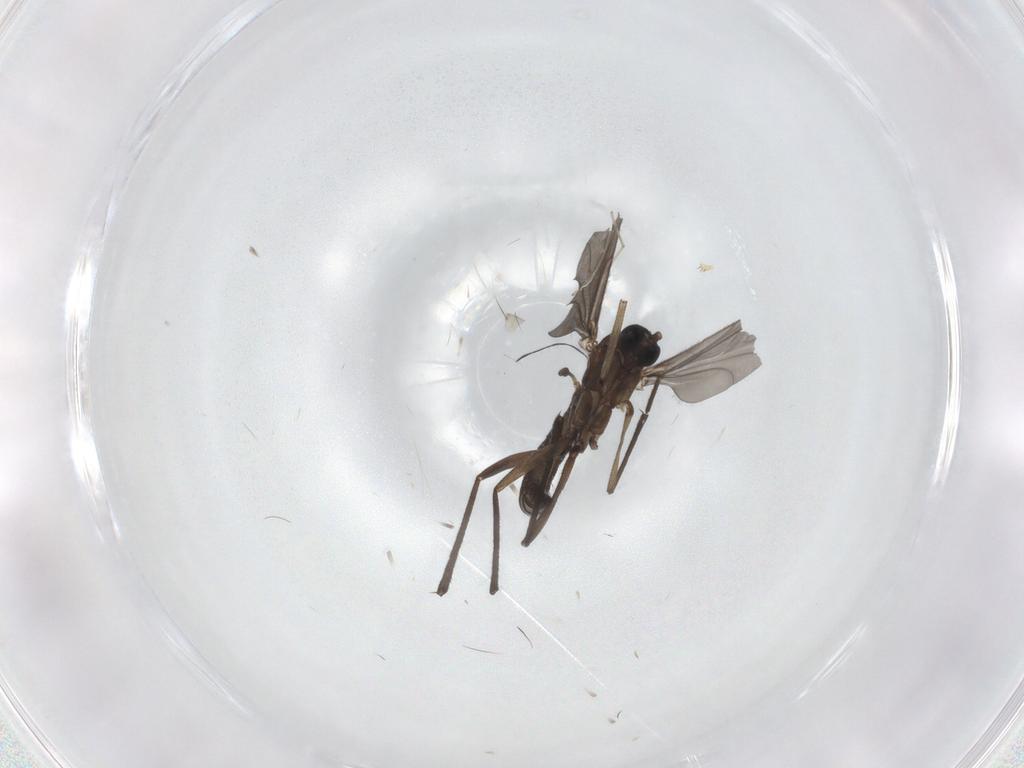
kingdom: Animalia
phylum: Arthropoda
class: Insecta
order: Diptera
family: Sciaridae
